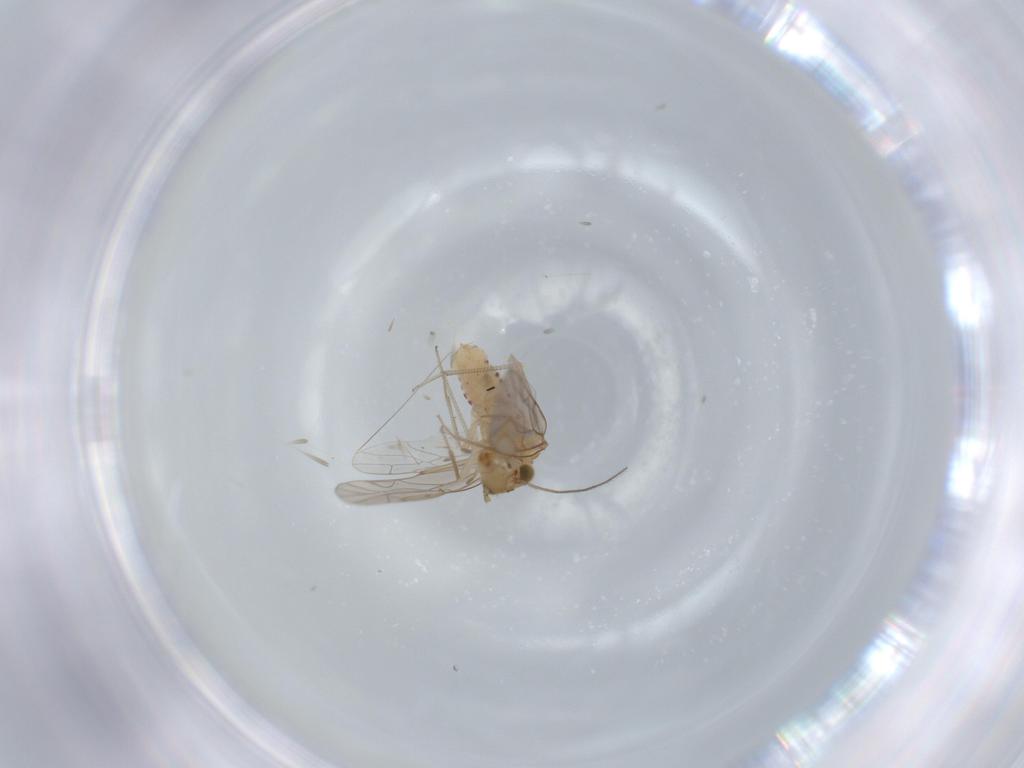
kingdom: Animalia
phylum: Arthropoda
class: Insecta
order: Psocodea
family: Lachesillidae
